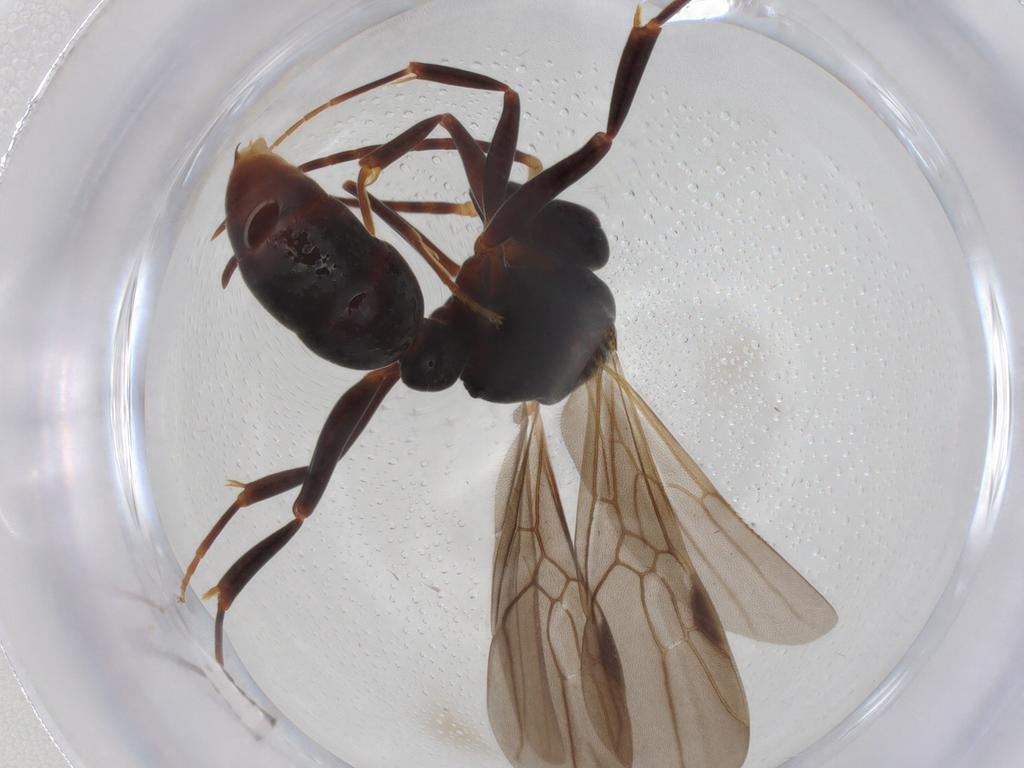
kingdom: Animalia
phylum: Arthropoda
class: Insecta
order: Hymenoptera
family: Formicidae
